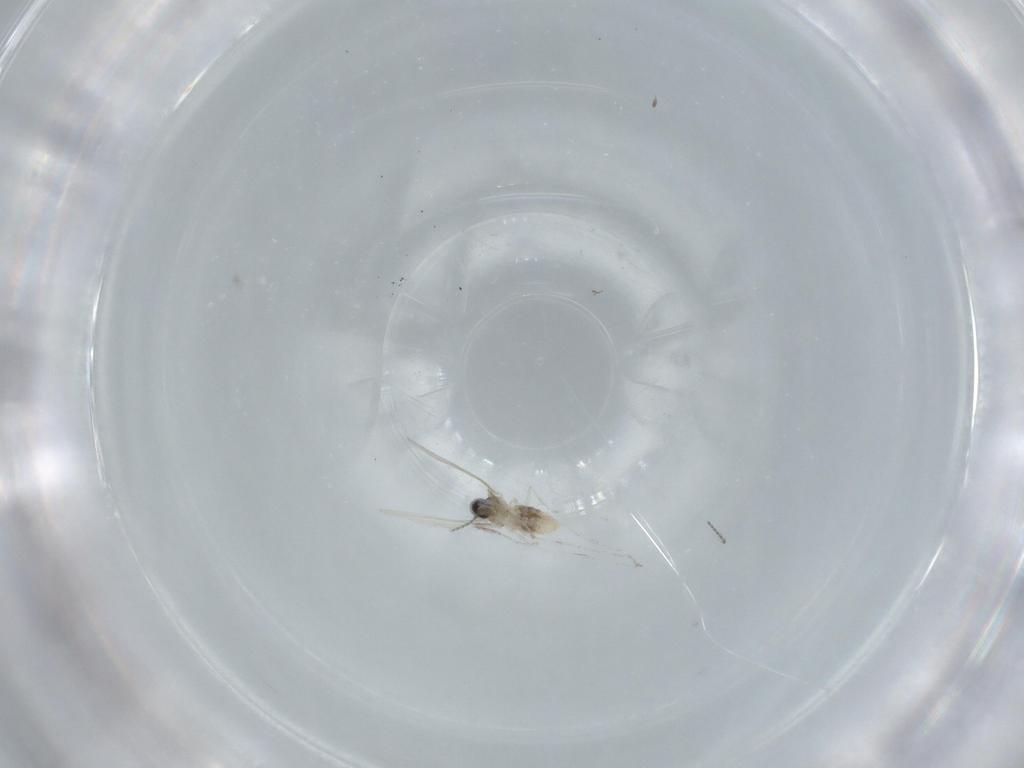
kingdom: Animalia
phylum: Arthropoda
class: Insecta
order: Diptera
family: Cecidomyiidae
